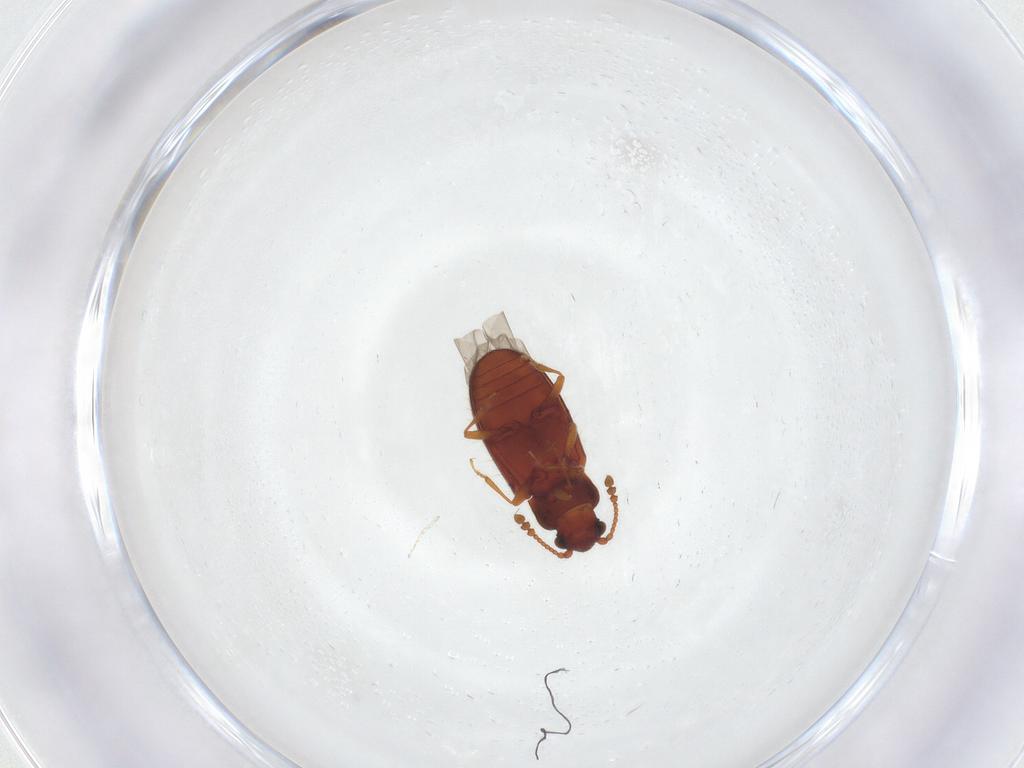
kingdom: Animalia
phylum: Arthropoda
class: Insecta
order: Coleoptera
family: Cryptophagidae
